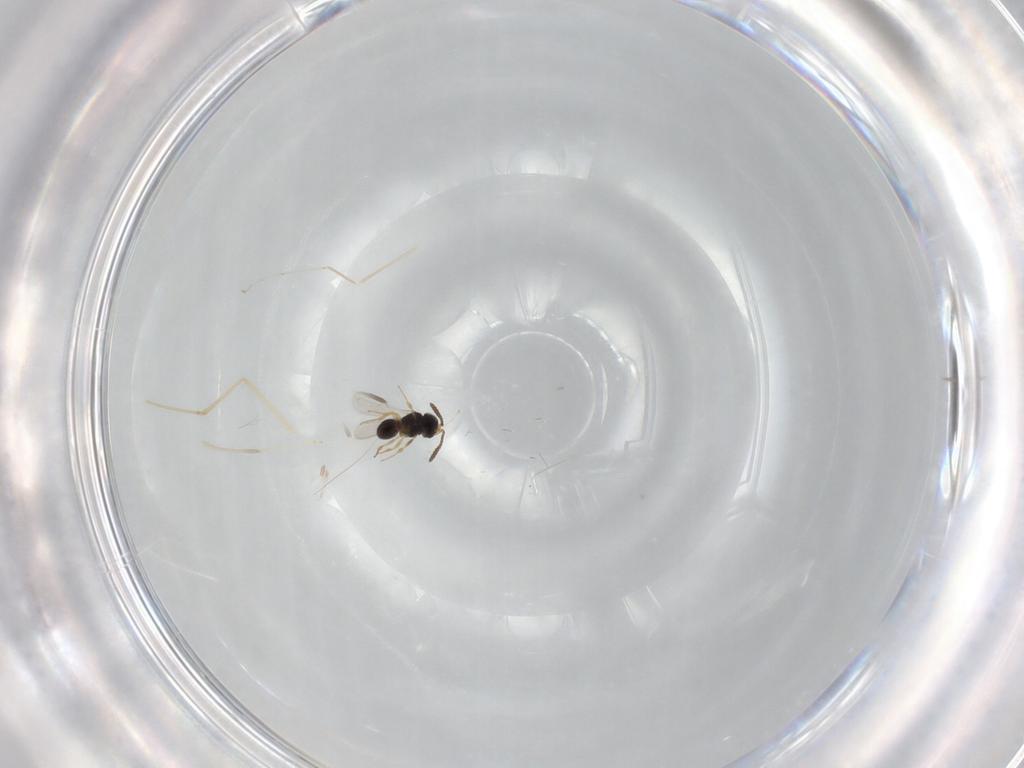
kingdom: Animalia
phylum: Arthropoda
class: Insecta
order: Hymenoptera
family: Scelionidae
